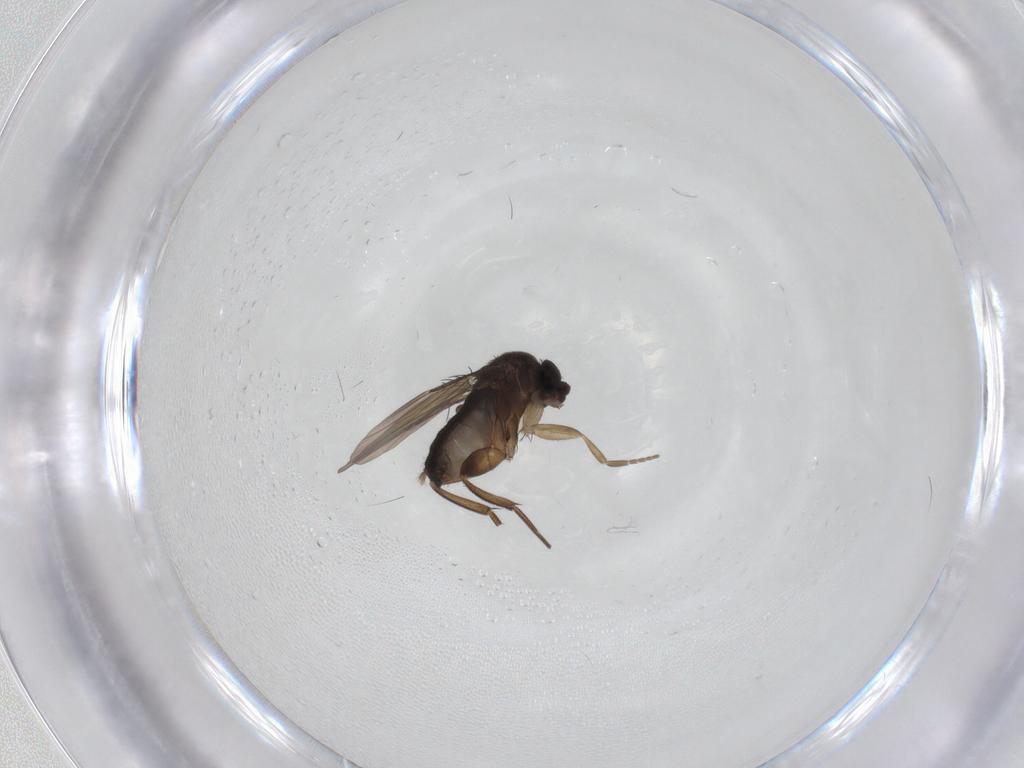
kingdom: Animalia
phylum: Arthropoda
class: Insecta
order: Diptera
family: Phoridae
